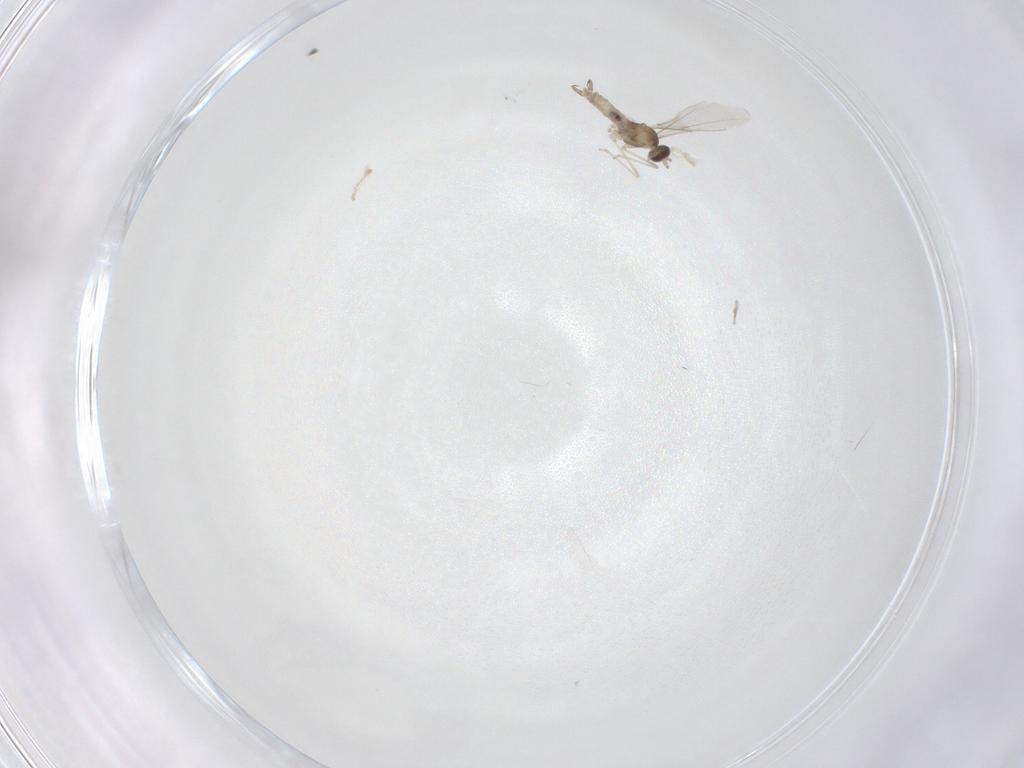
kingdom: Animalia
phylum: Arthropoda
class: Insecta
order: Diptera
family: Cecidomyiidae
